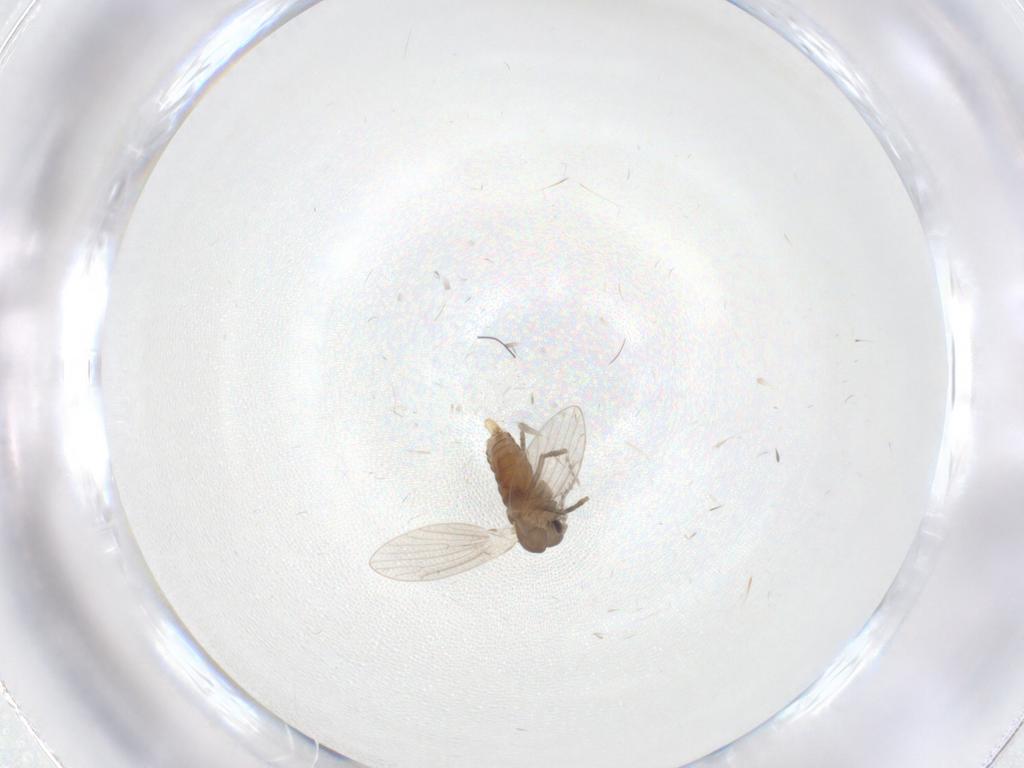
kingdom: Animalia
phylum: Arthropoda
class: Insecta
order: Diptera
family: Cecidomyiidae
